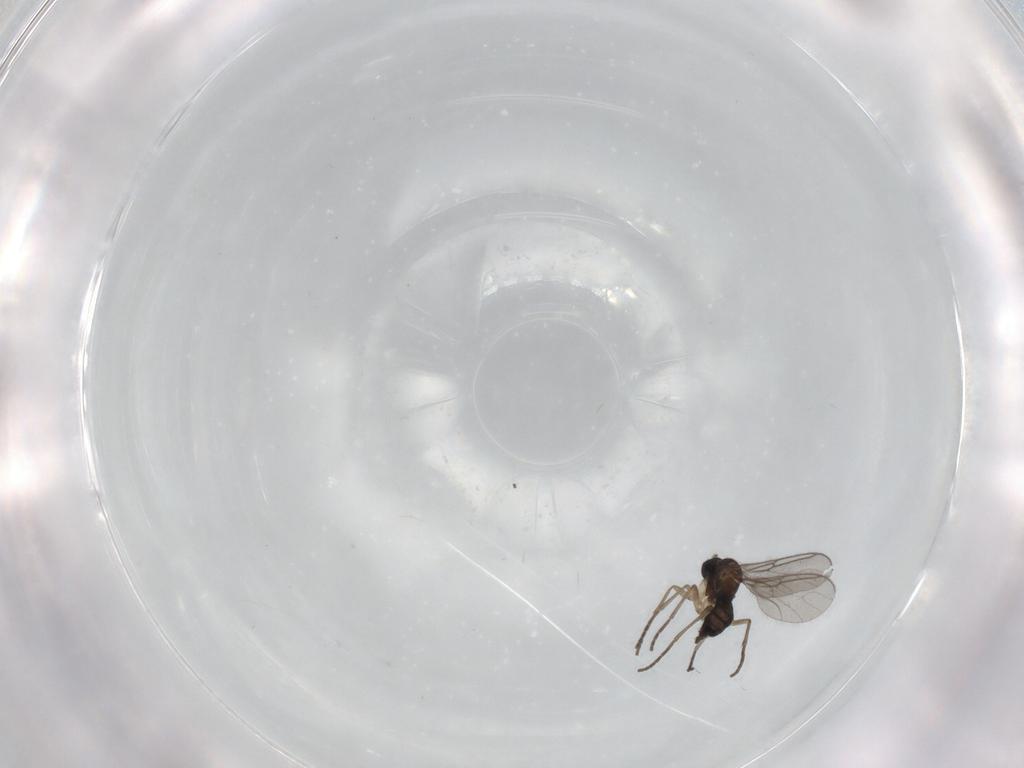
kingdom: Animalia
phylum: Arthropoda
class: Insecta
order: Diptera
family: Sciaridae
